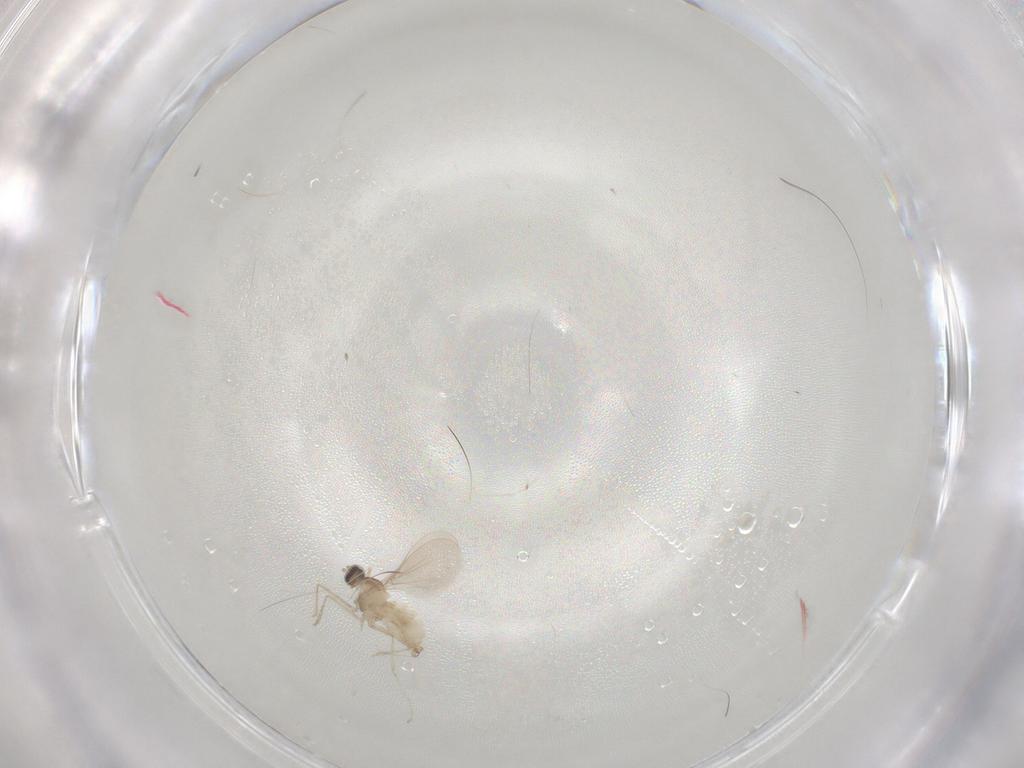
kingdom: Animalia
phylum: Arthropoda
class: Insecta
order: Diptera
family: Cecidomyiidae
